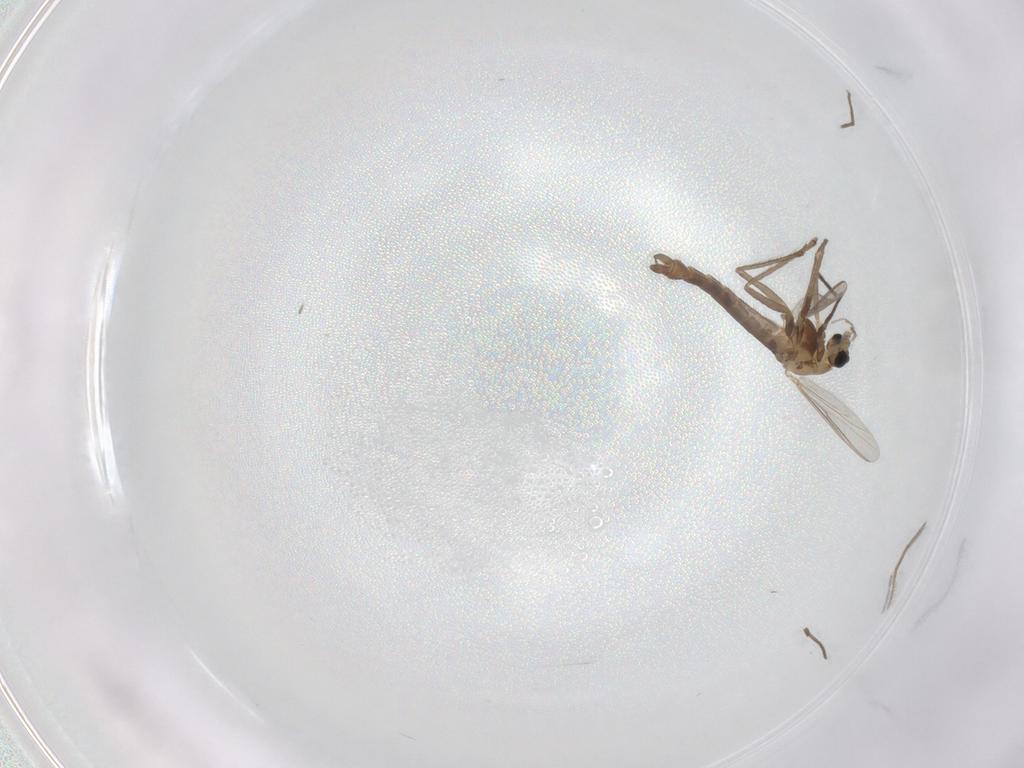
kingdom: Animalia
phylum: Arthropoda
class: Insecta
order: Diptera
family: Chironomidae
